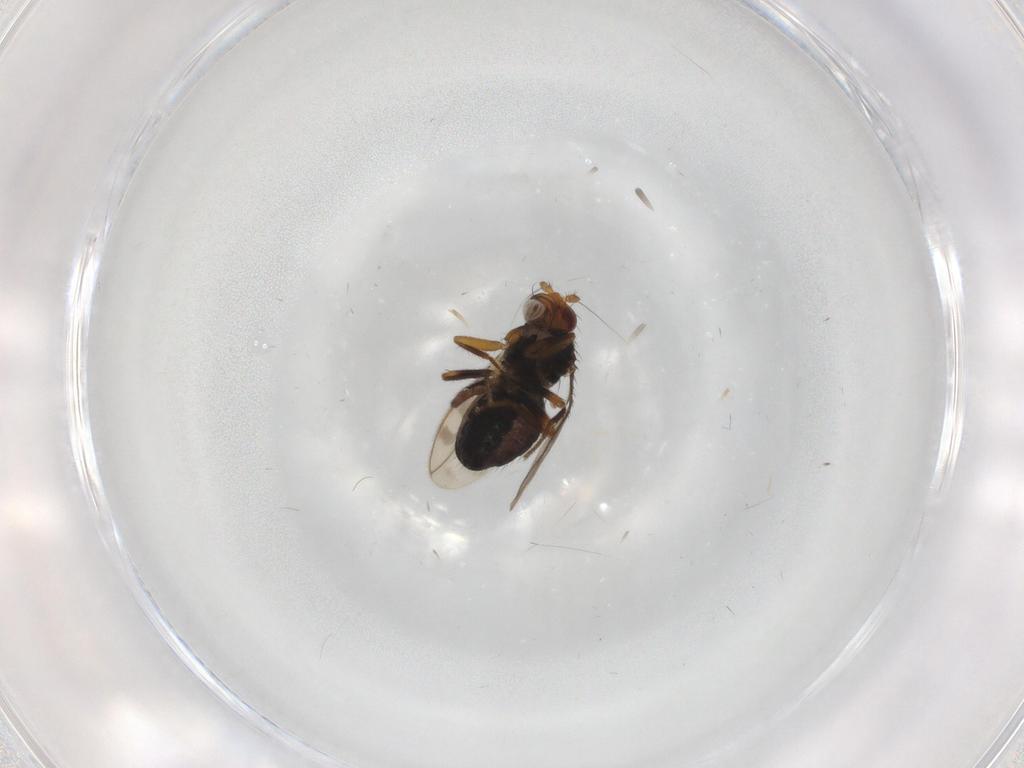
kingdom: Animalia
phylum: Arthropoda
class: Insecta
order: Diptera
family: Sphaeroceridae
